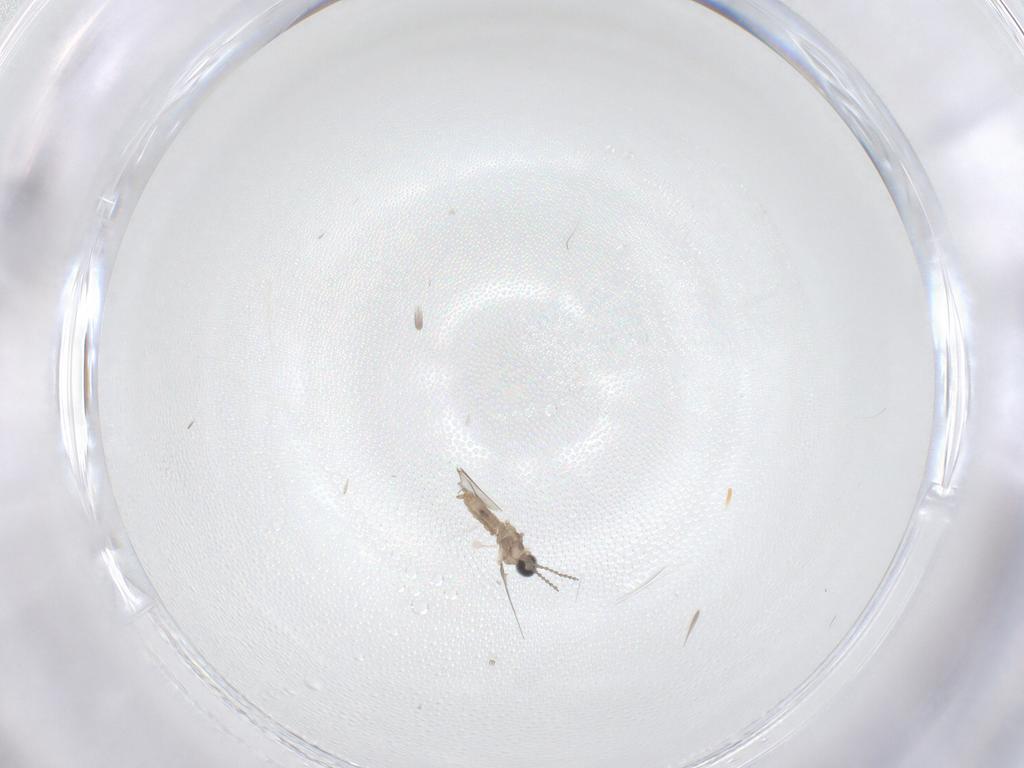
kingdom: Animalia
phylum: Arthropoda
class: Insecta
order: Diptera
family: Cecidomyiidae
